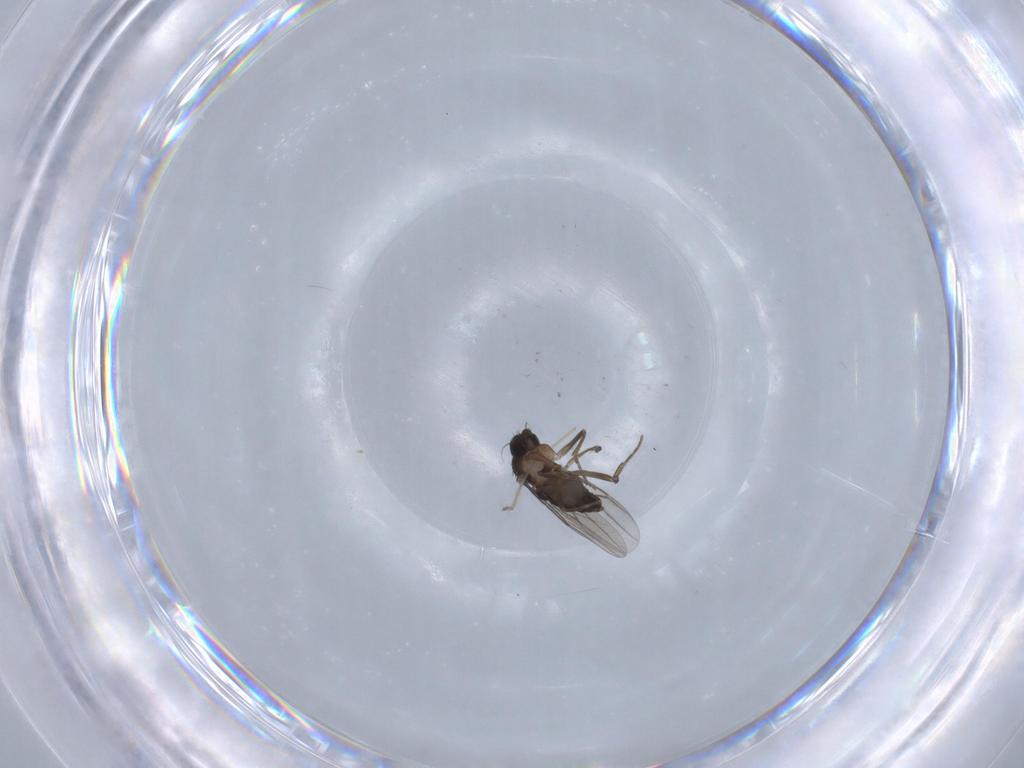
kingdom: Animalia
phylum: Arthropoda
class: Insecta
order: Diptera
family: Phoridae
